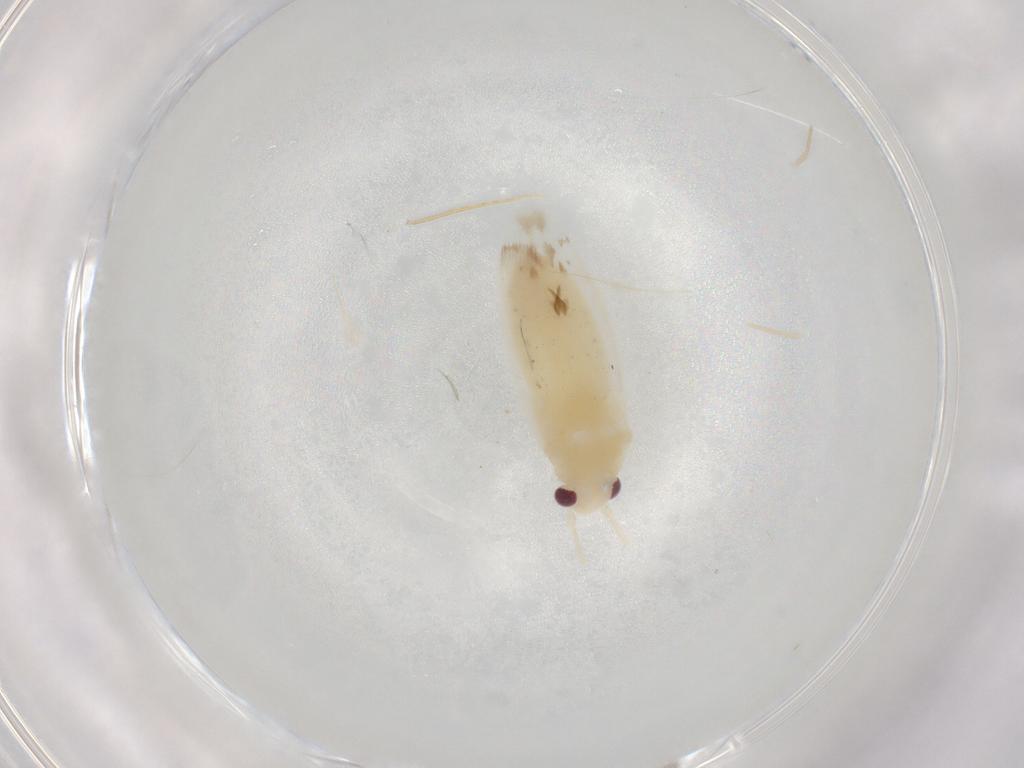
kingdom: Animalia
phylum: Arthropoda
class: Insecta
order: Hemiptera
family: Miridae
